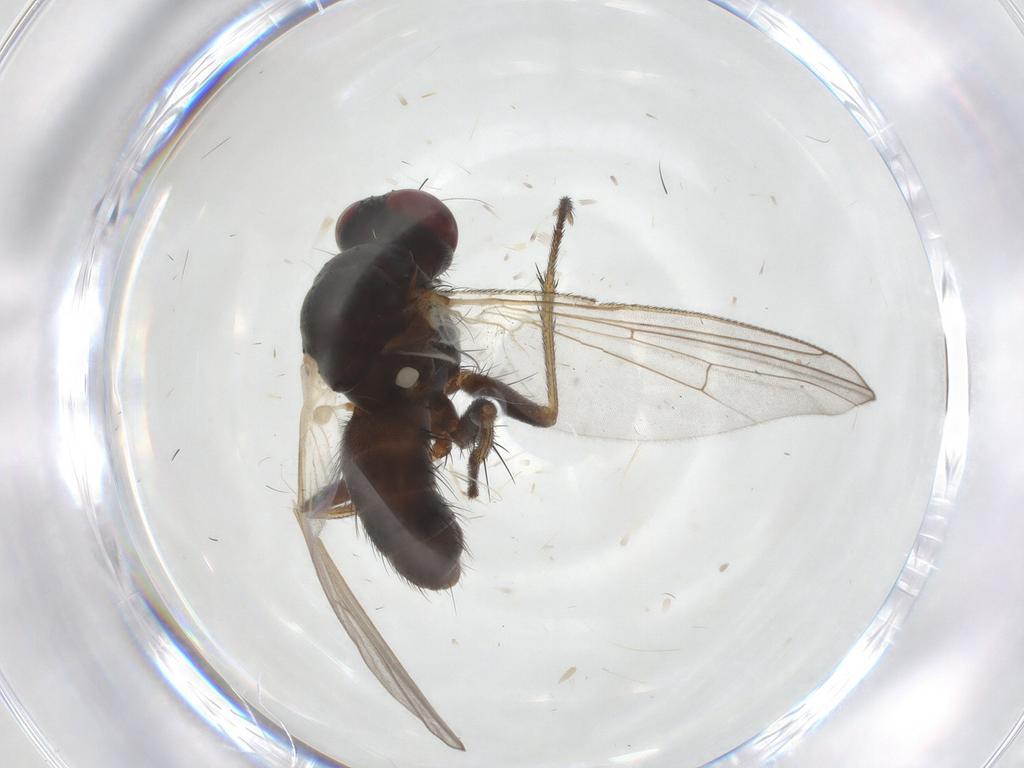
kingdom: Animalia
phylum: Arthropoda
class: Insecta
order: Diptera
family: Muscidae
